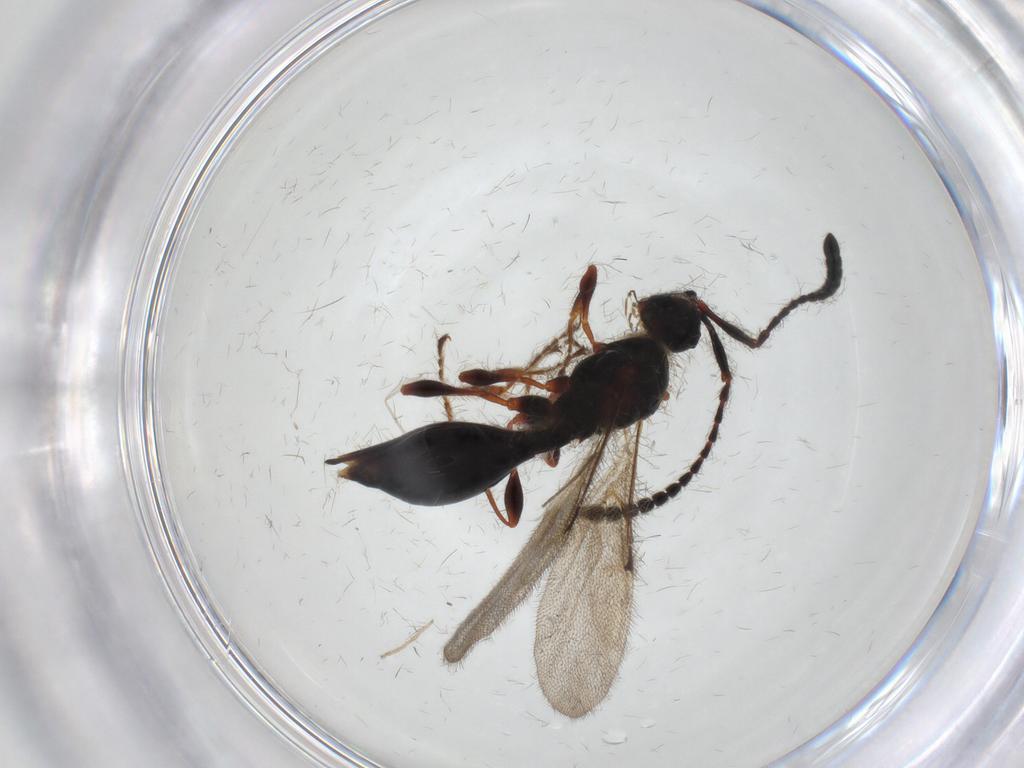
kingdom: Animalia
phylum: Arthropoda
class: Insecta
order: Hymenoptera
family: Diapriidae
